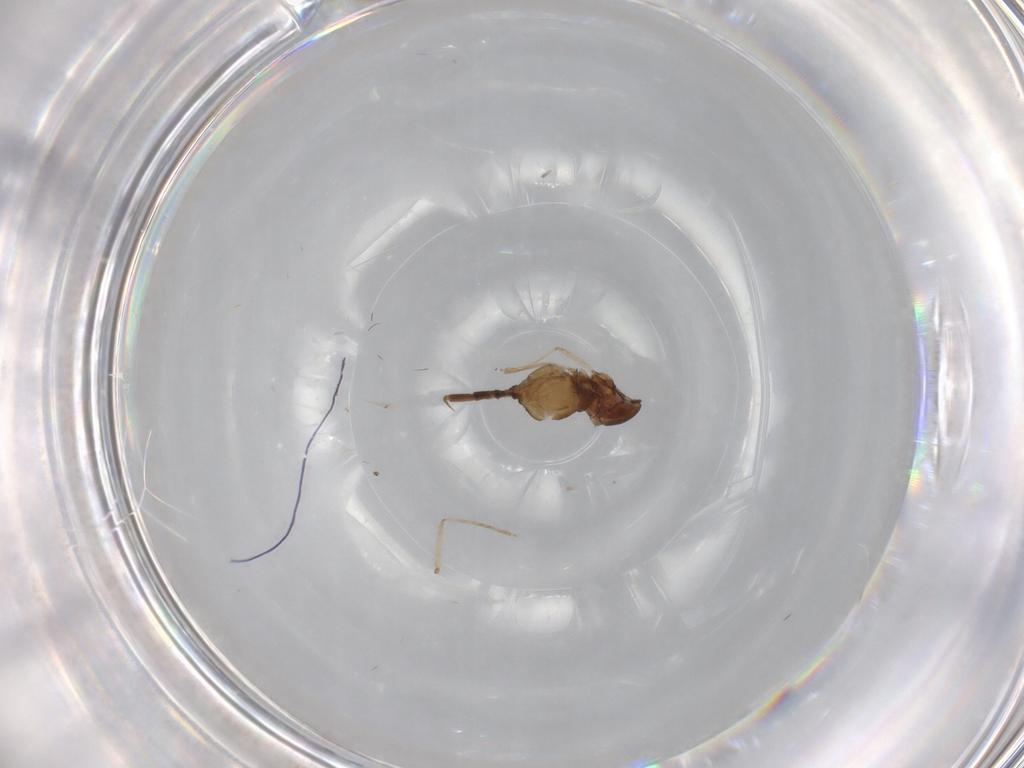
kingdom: Animalia
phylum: Arthropoda
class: Insecta
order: Diptera
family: Cecidomyiidae
